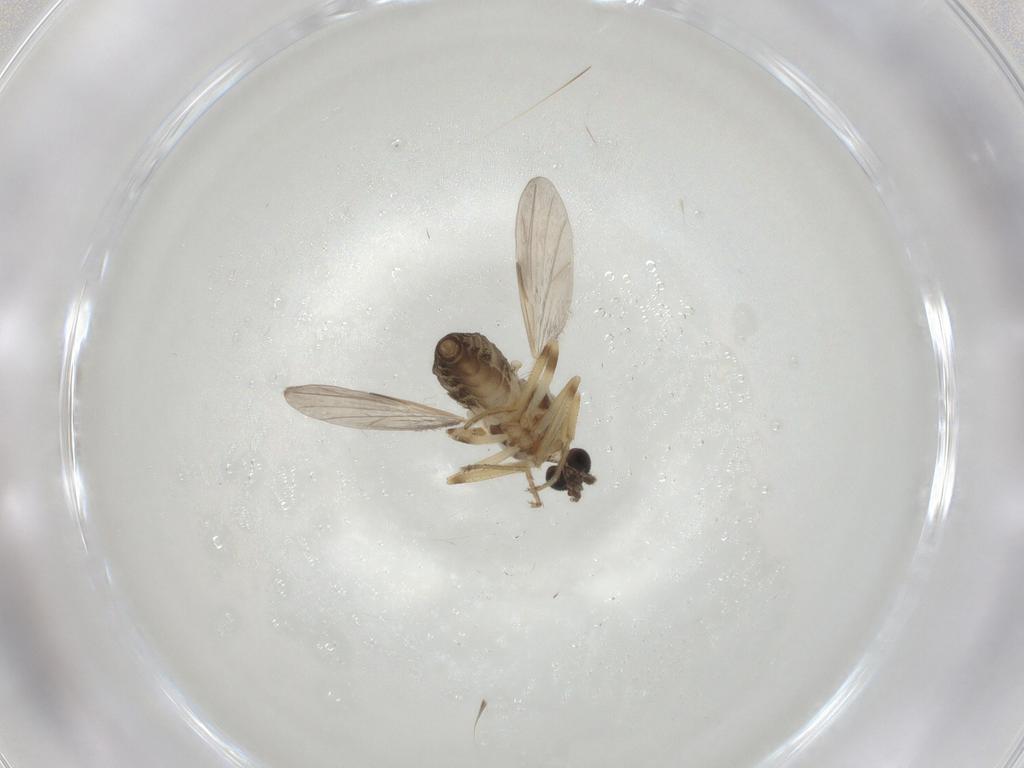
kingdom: Animalia
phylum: Arthropoda
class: Insecta
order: Diptera
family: Ceratopogonidae
